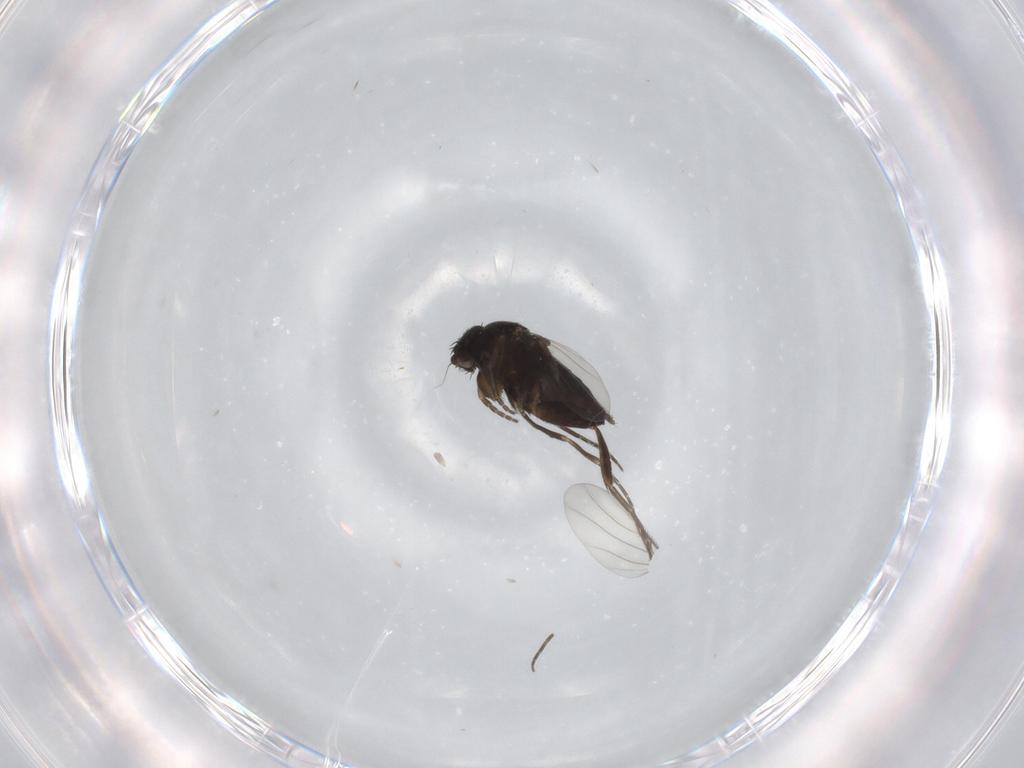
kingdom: Animalia
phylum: Arthropoda
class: Insecta
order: Diptera
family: Phoridae
